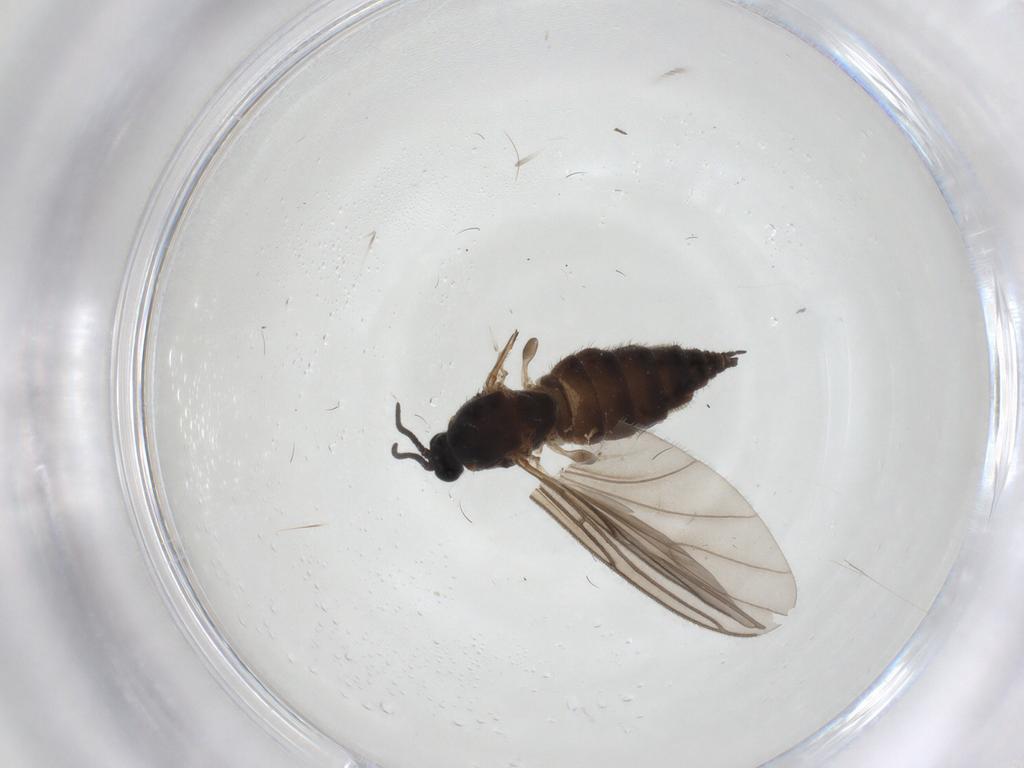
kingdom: Animalia
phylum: Arthropoda
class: Insecta
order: Diptera
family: Sciaridae
